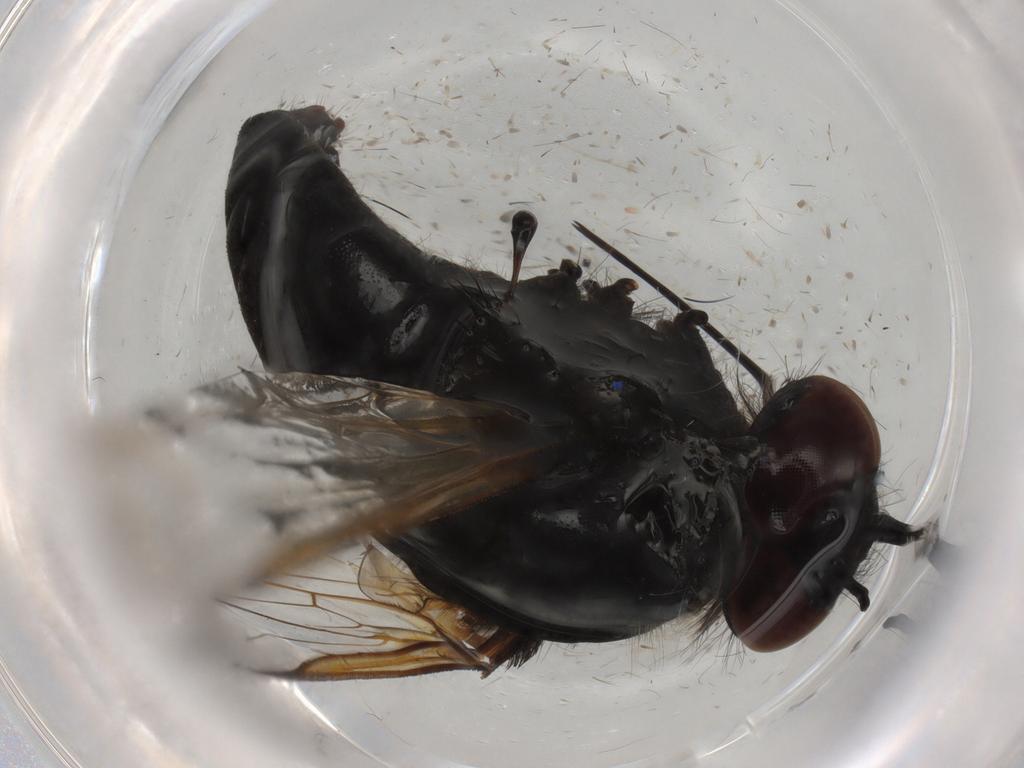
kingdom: Animalia
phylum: Arthropoda
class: Insecta
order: Diptera
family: Bombyliidae
